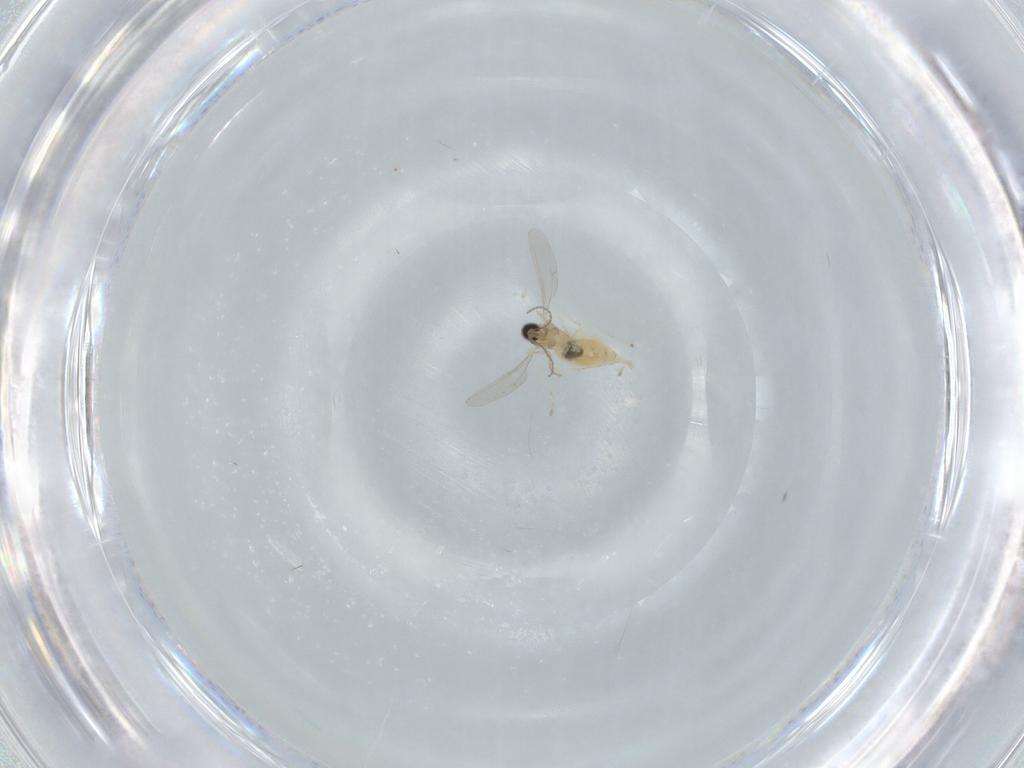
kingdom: Animalia
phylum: Arthropoda
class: Insecta
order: Diptera
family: Cecidomyiidae
